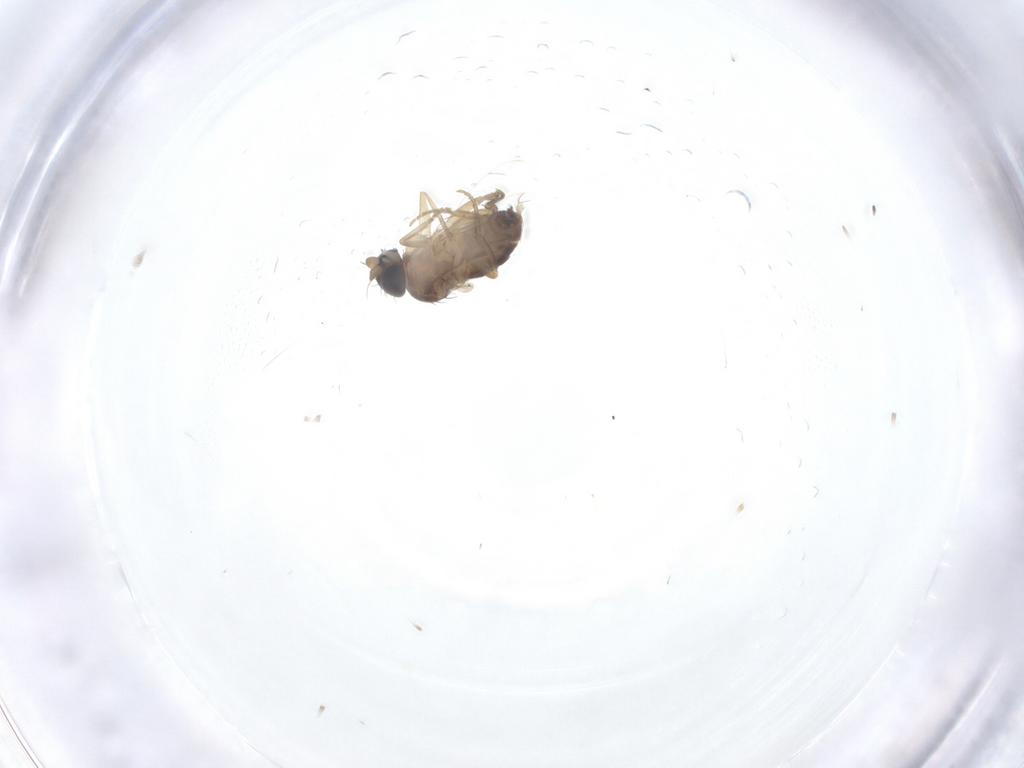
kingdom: Animalia
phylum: Arthropoda
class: Insecta
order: Diptera
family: Phoridae
